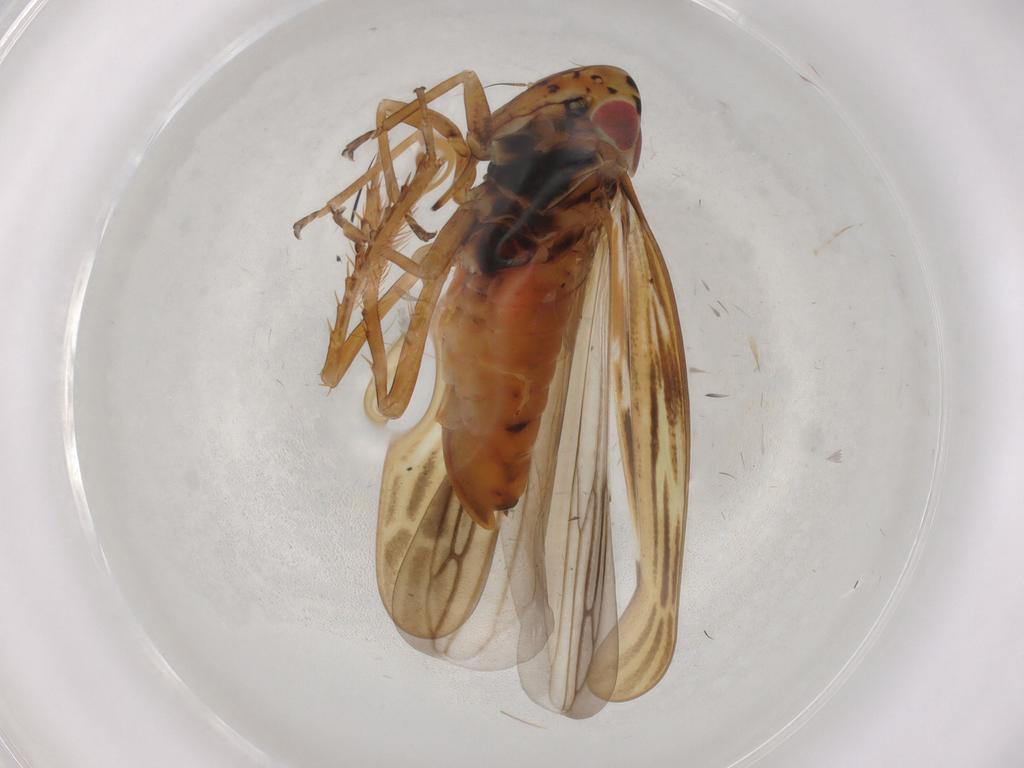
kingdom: Animalia
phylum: Arthropoda
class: Insecta
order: Hemiptera
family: Cicadellidae
